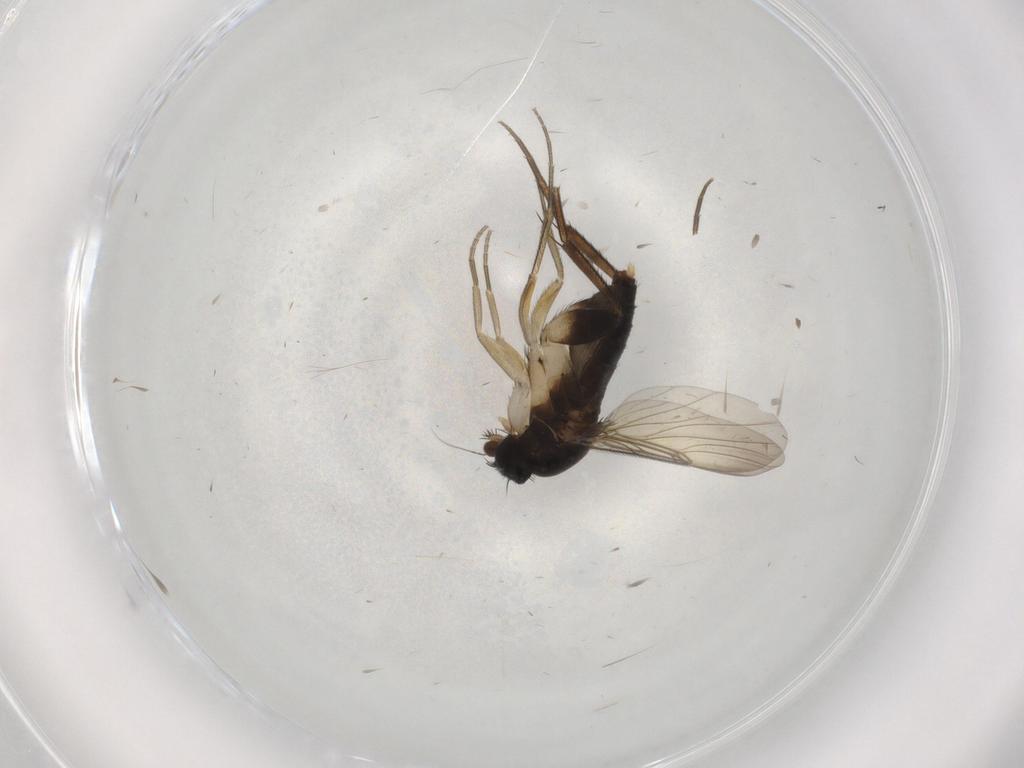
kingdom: Animalia
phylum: Arthropoda
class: Insecta
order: Diptera
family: Phoridae
